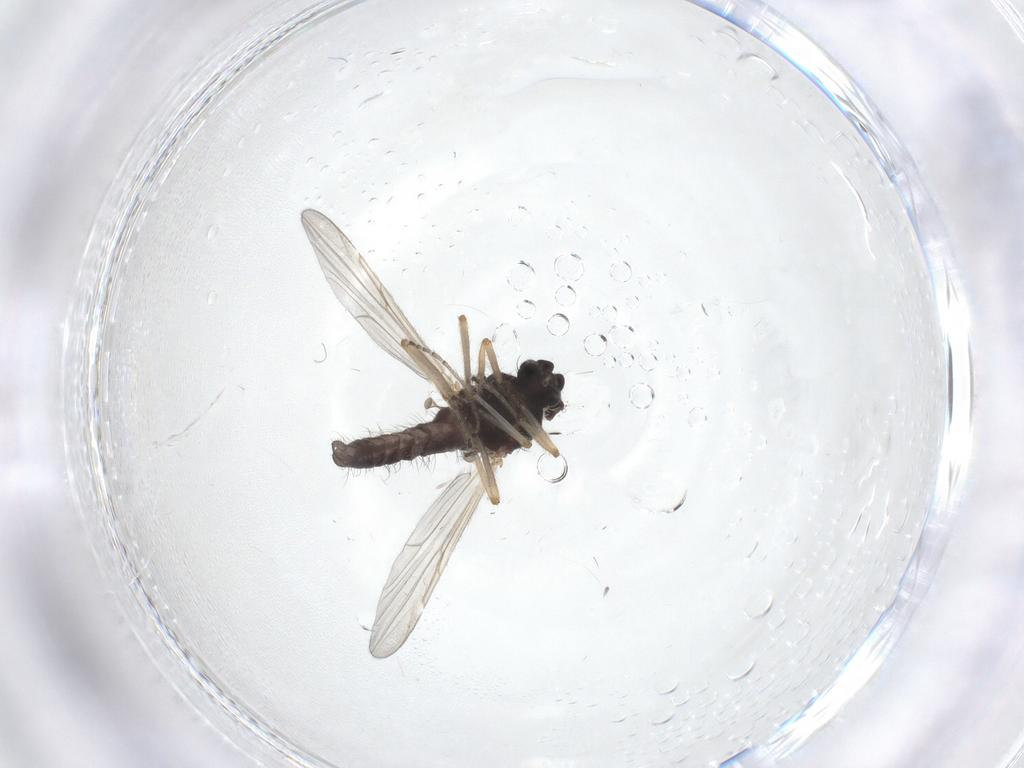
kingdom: Animalia
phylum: Arthropoda
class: Insecta
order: Diptera
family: Ceratopogonidae
